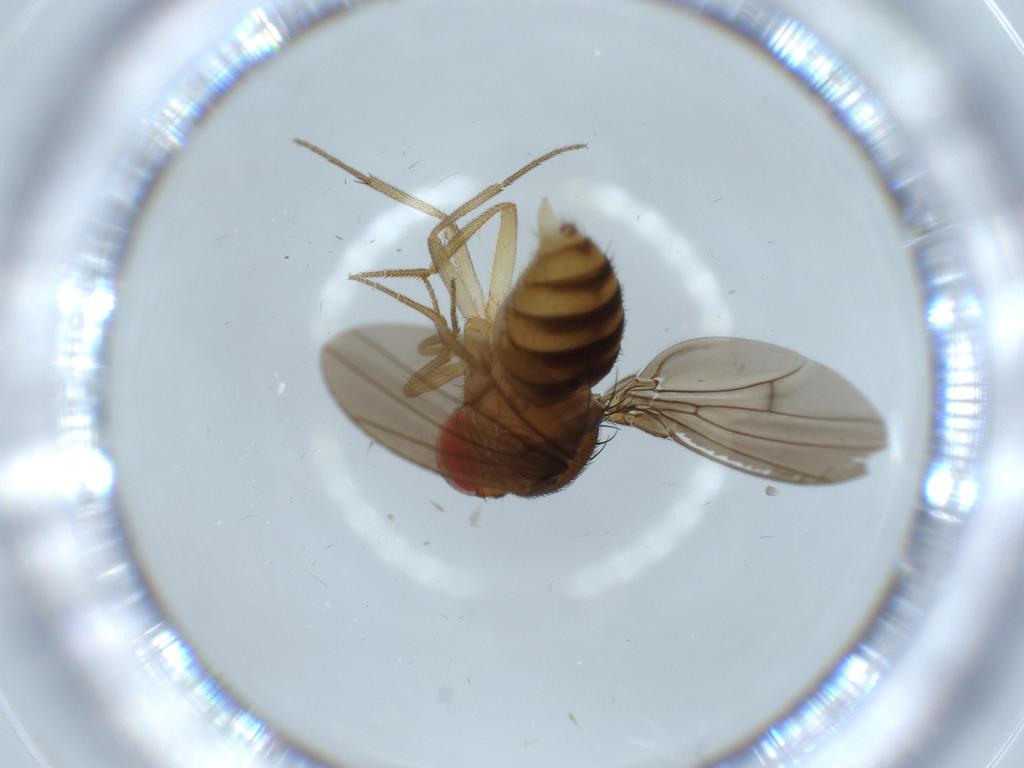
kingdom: Animalia
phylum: Arthropoda
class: Insecta
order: Diptera
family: Drosophilidae
